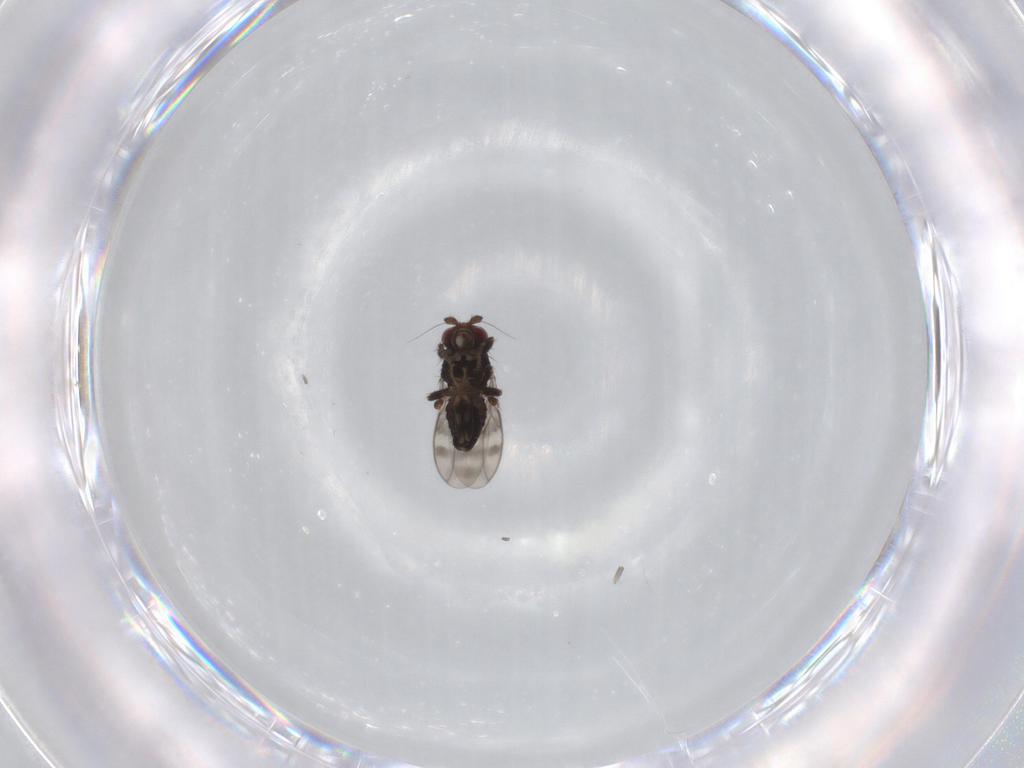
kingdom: Animalia
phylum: Arthropoda
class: Insecta
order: Diptera
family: Sphaeroceridae
